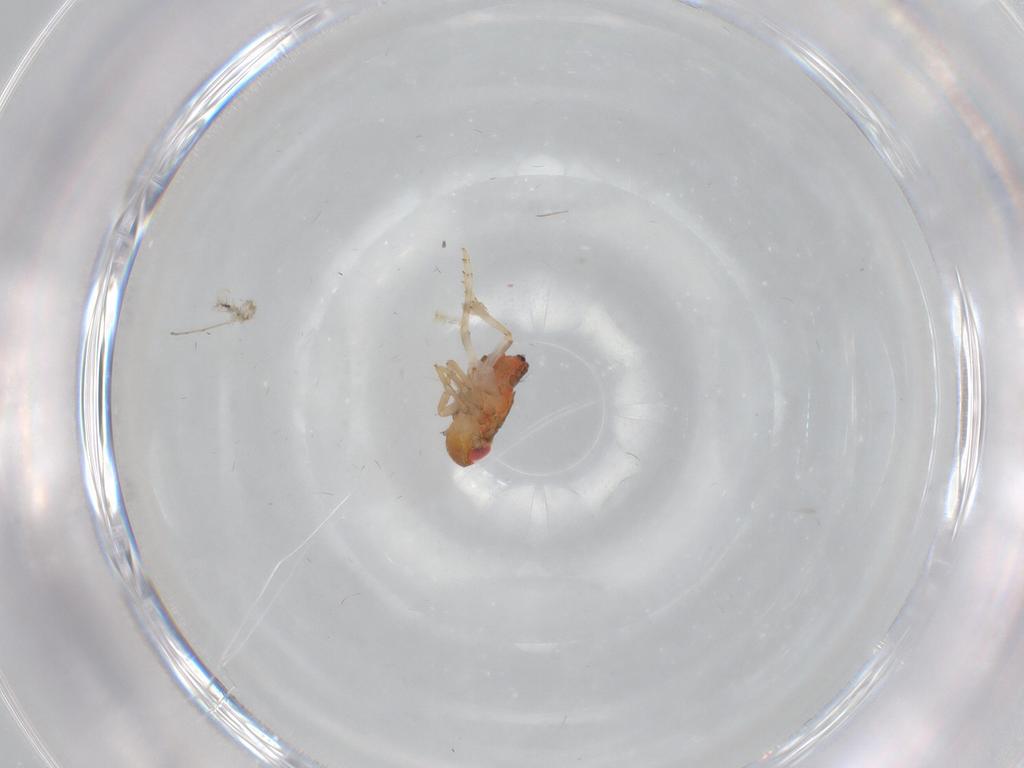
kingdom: Animalia
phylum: Arthropoda
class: Insecta
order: Hemiptera
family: Issidae
